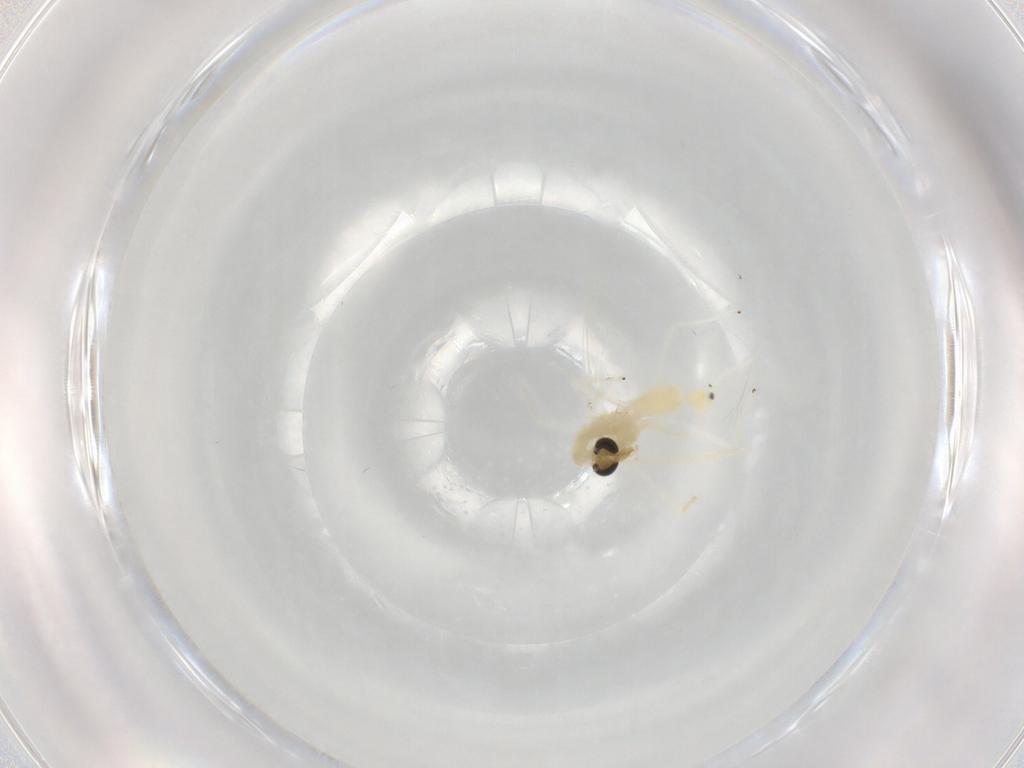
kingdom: Animalia
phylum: Arthropoda
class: Insecta
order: Diptera
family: Chironomidae
